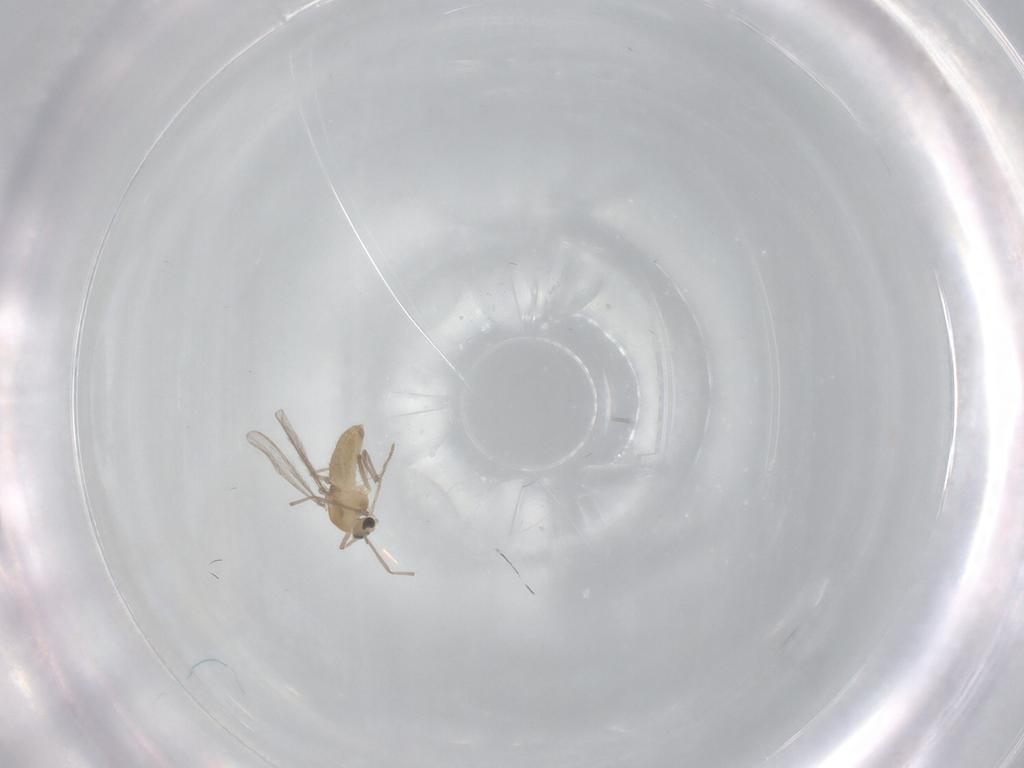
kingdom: Animalia
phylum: Arthropoda
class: Insecta
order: Diptera
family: Chironomidae
